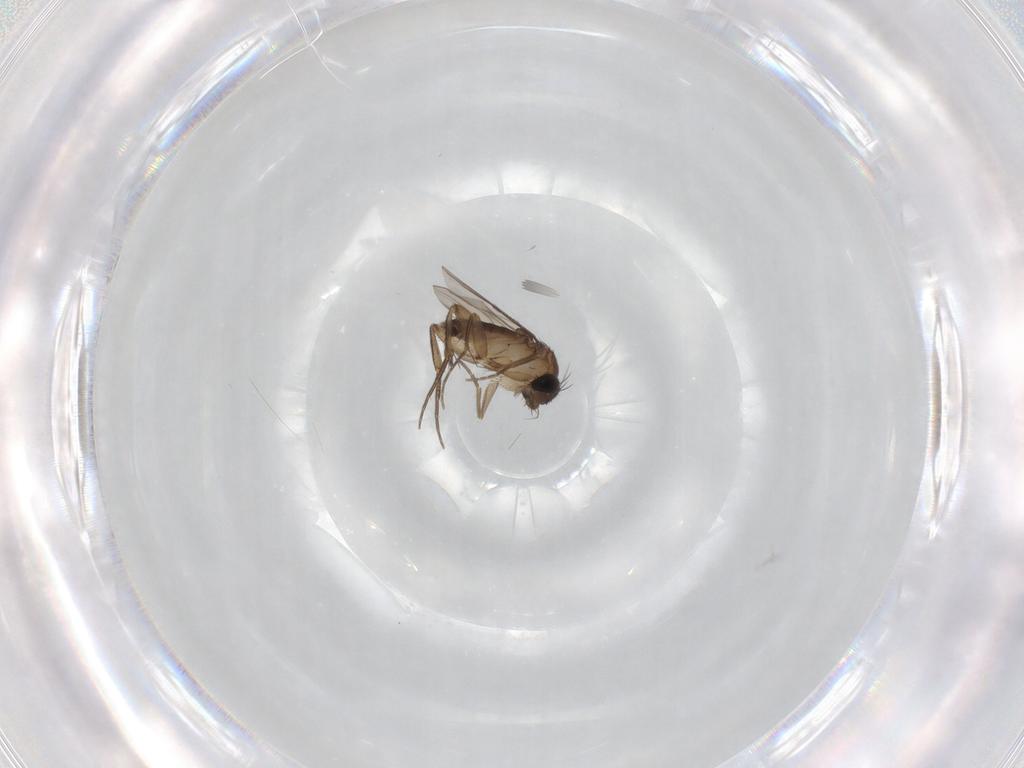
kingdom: Animalia
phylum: Arthropoda
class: Insecta
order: Diptera
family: Phoridae
